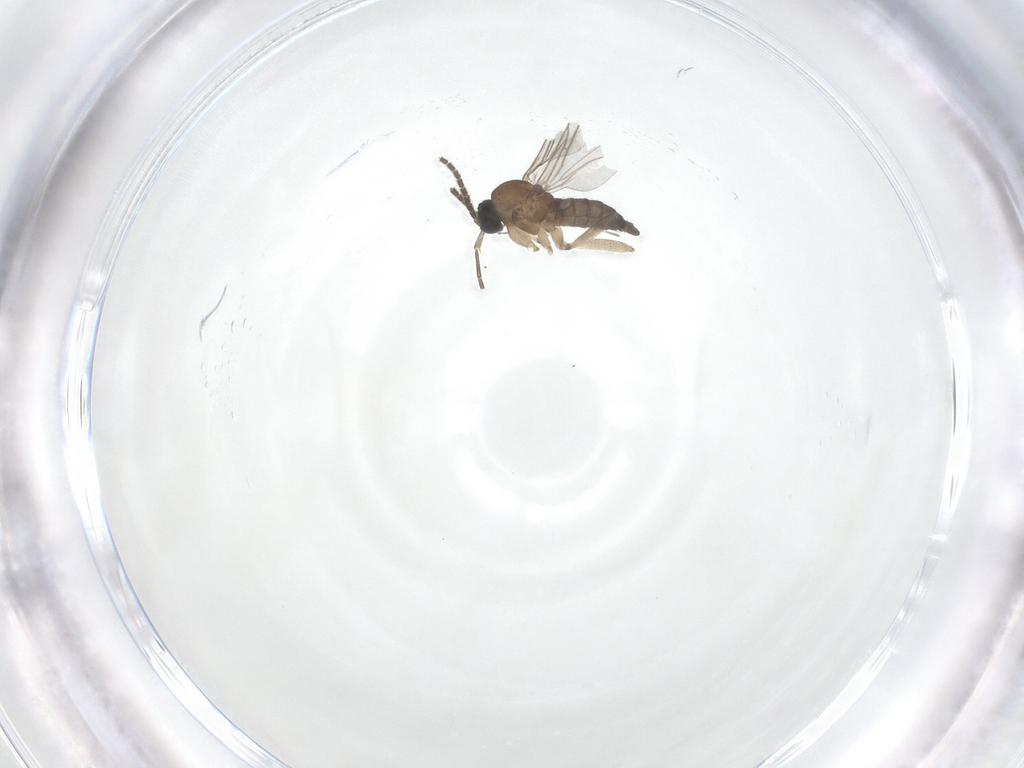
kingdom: Animalia
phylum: Arthropoda
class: Insecta
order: Diptera
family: Sciaridae
